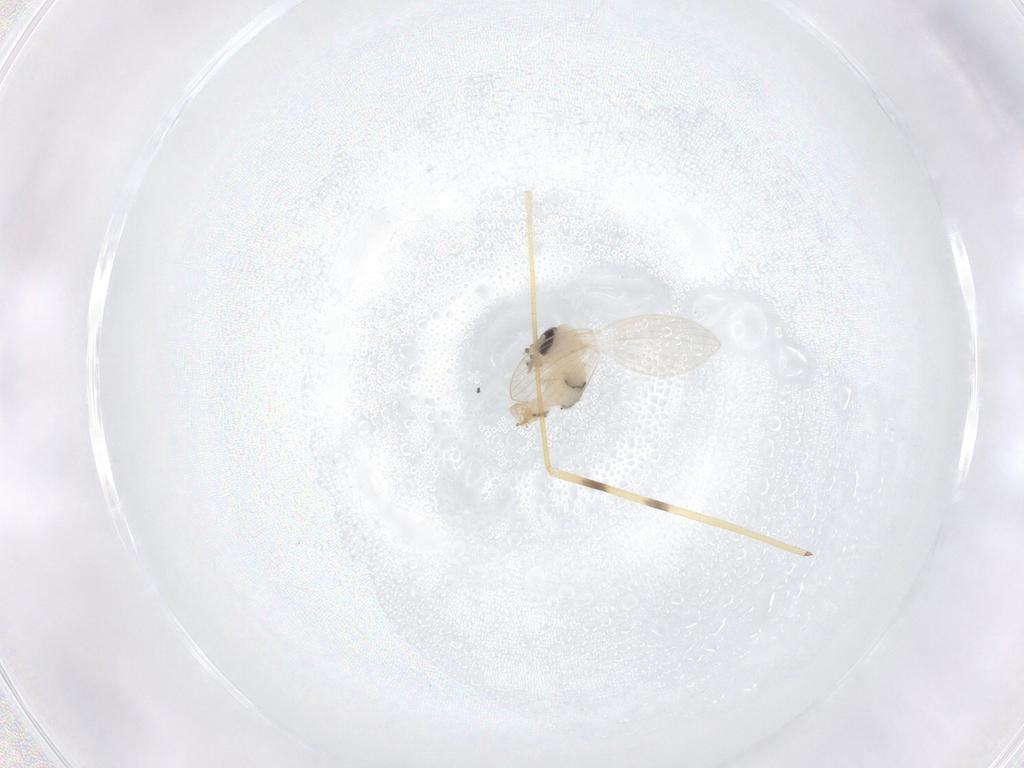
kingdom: Animalia
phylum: Arthropoda
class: Insecta
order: Diptera
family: Psychodidae
